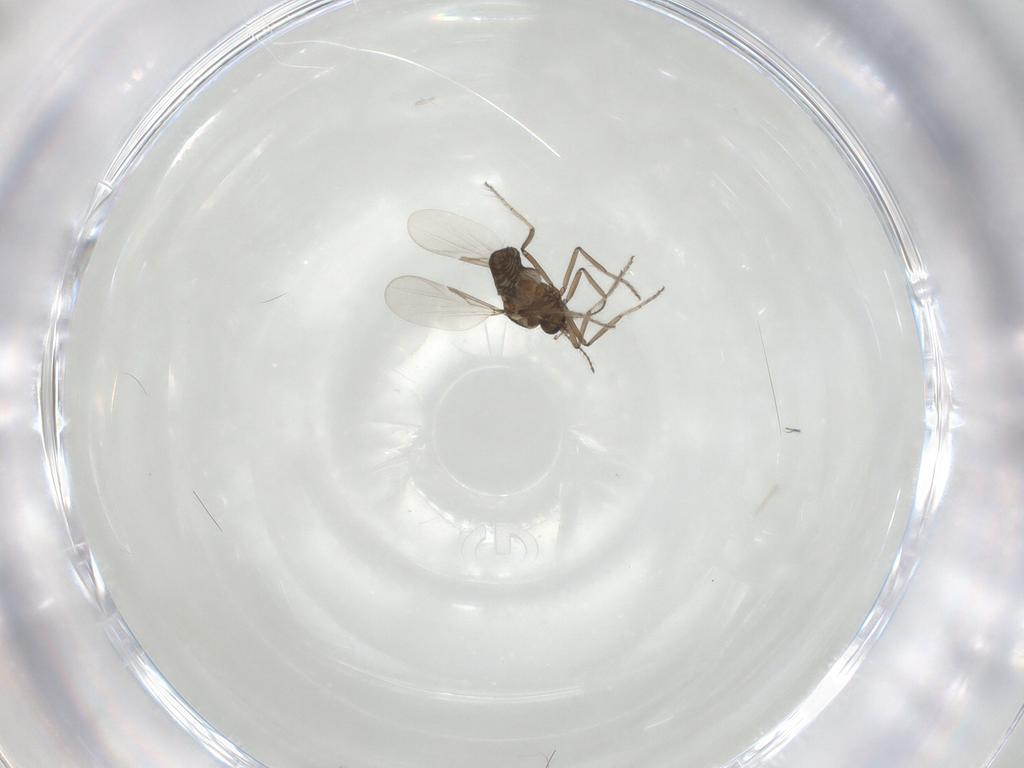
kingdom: Animalia
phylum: Arthropoda
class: Insecta
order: Diptera
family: Ceratopogonidae
